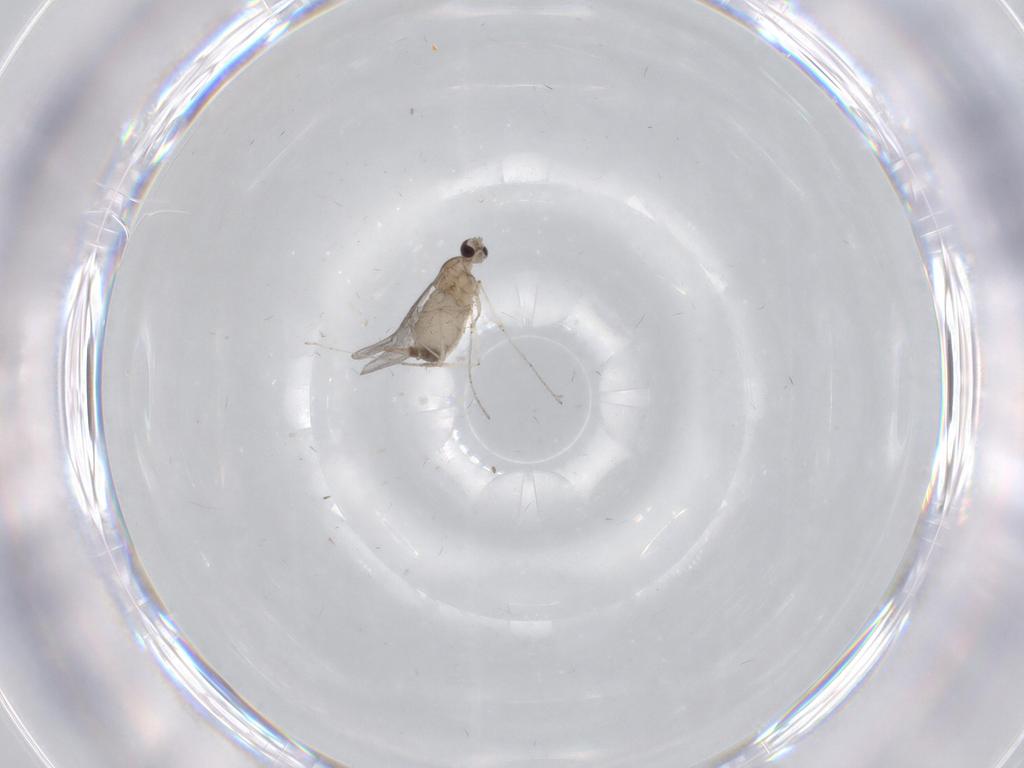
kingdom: Animalia
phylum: Arthropoda
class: Insecta
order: Diptera
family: Cecidomyiidae
